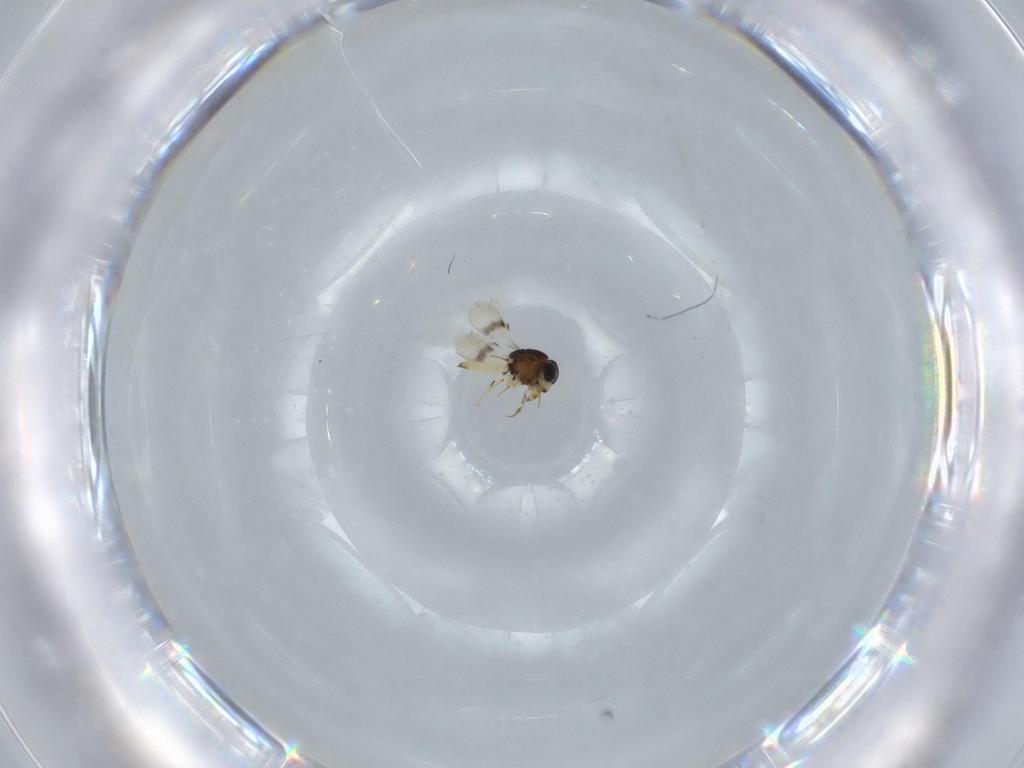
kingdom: Animalia
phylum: Arthropoda
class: Insecta
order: Hymenoptera
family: Scelionidae
